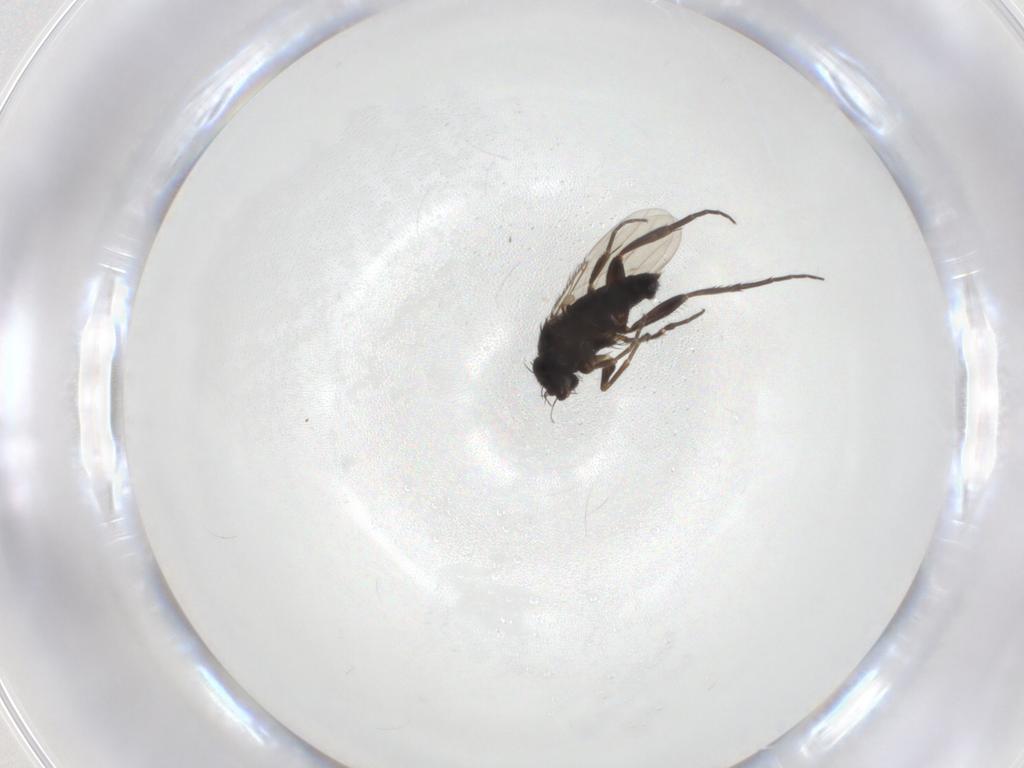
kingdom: Animalia
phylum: Arthropoda
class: Insecta
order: Diptera
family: Phoridae
